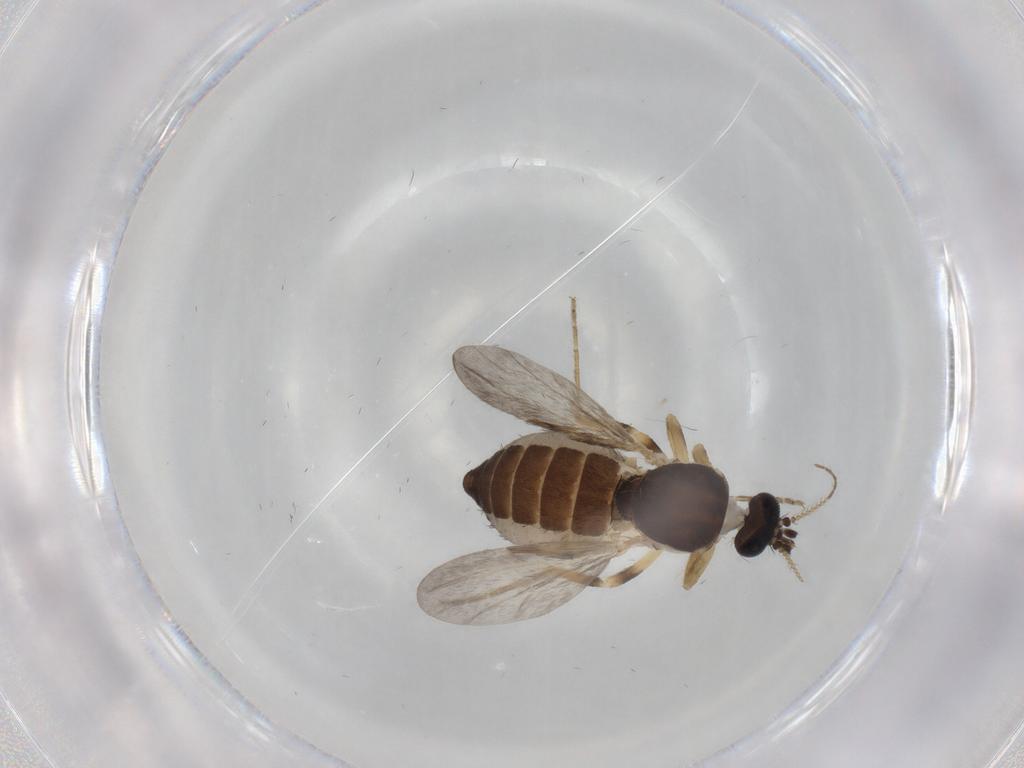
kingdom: Animalia
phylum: Arthropoda
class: Insecta
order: Diptera
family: Ceratopogonidae
